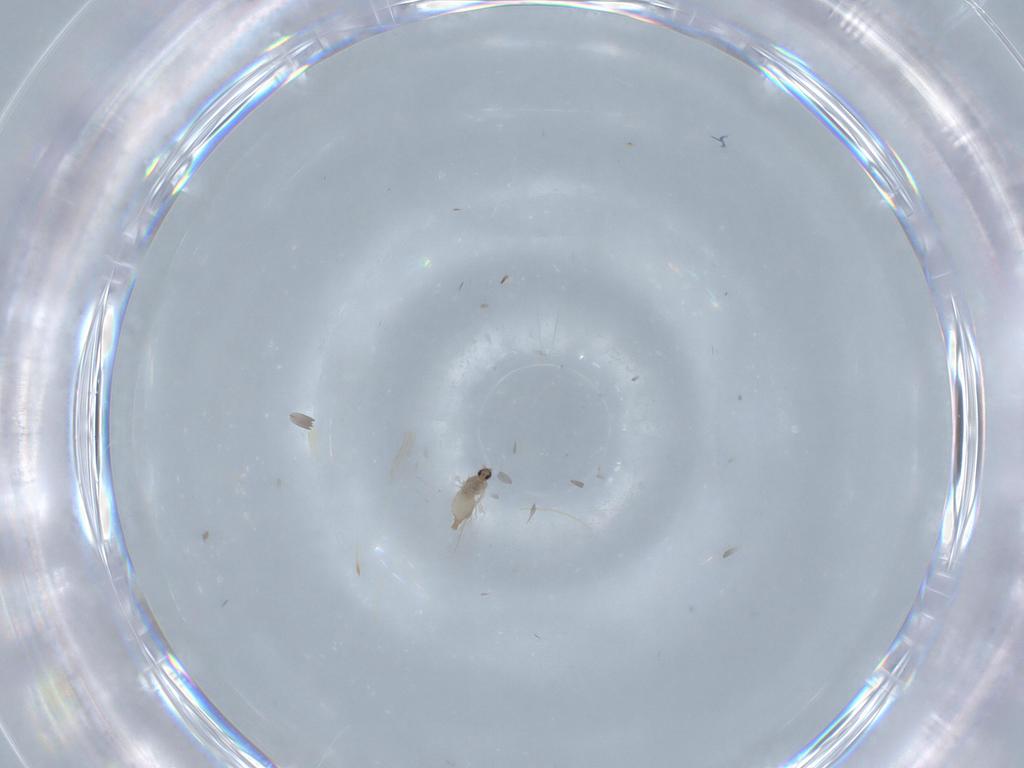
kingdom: Animalia
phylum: Arthropoda
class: Insecta
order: Diptera
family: Cecidomyiidae
